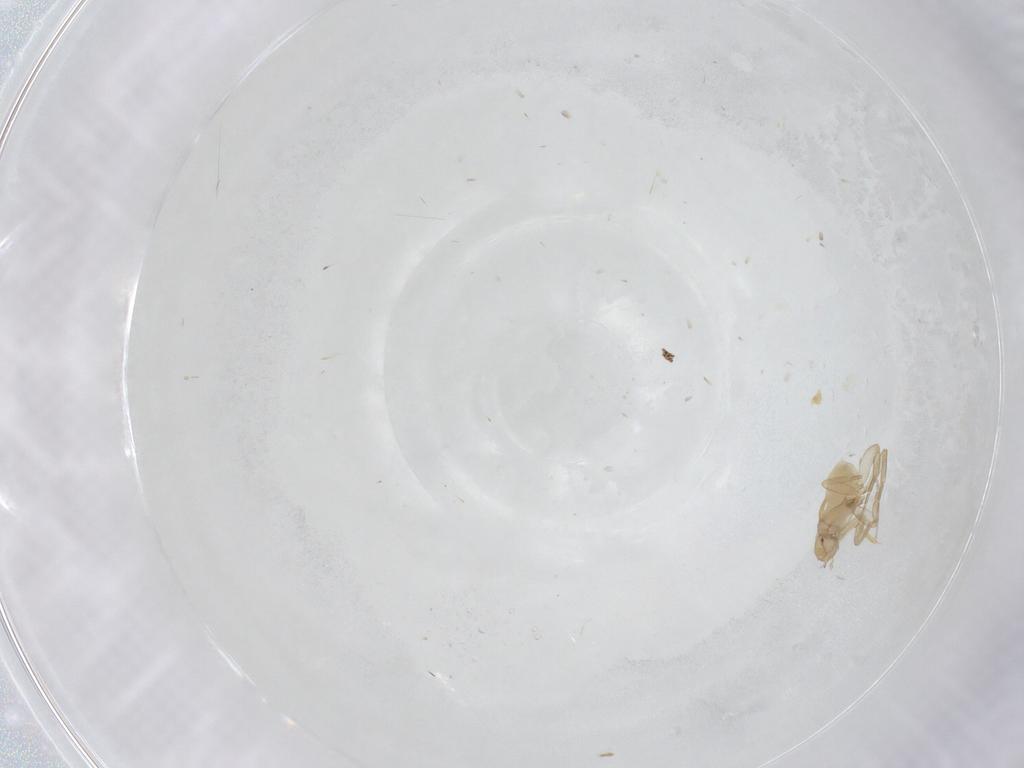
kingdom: Animalia
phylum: Arthropoda
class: Insecta
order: Diptera
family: Phoridae
